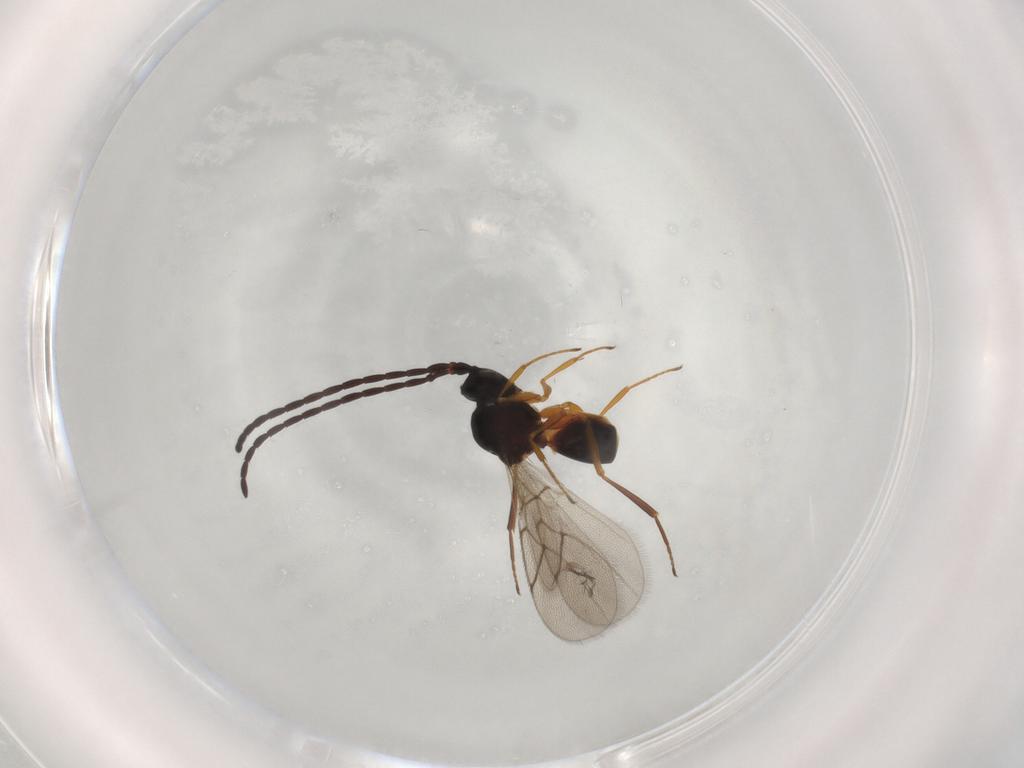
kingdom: Animalia
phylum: Arthropoda
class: Insecta
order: Hymenoptera
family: Figitidae
